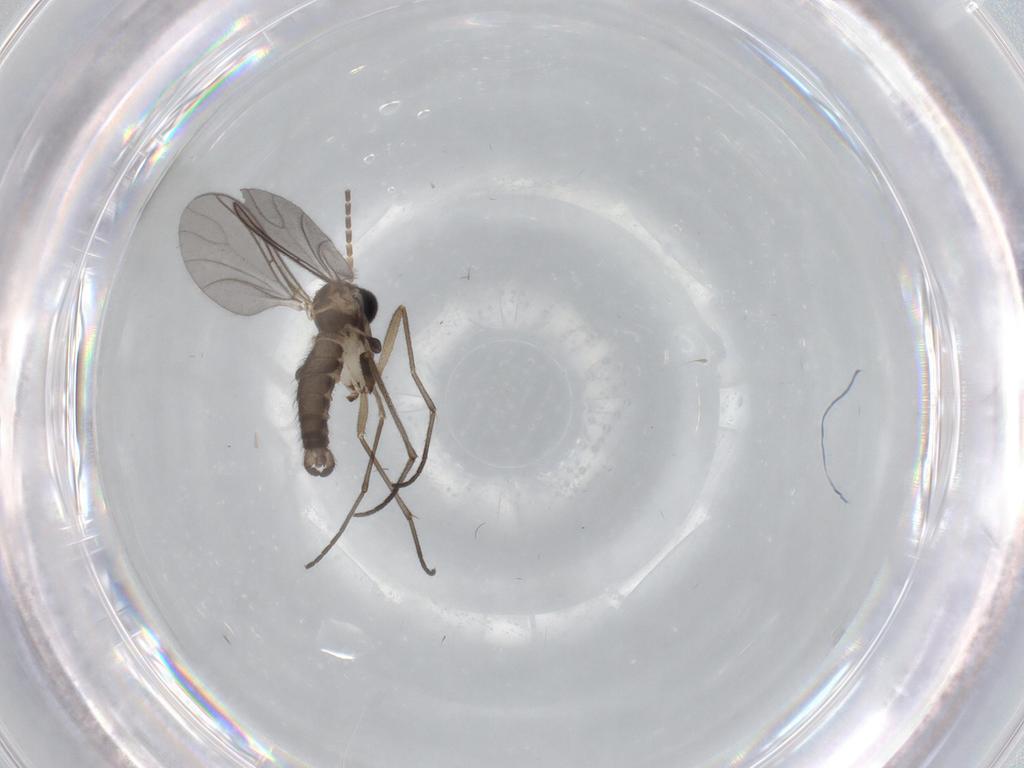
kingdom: Animalia
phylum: Arthropoda
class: Insecta
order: Diptera
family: Sciaridae
